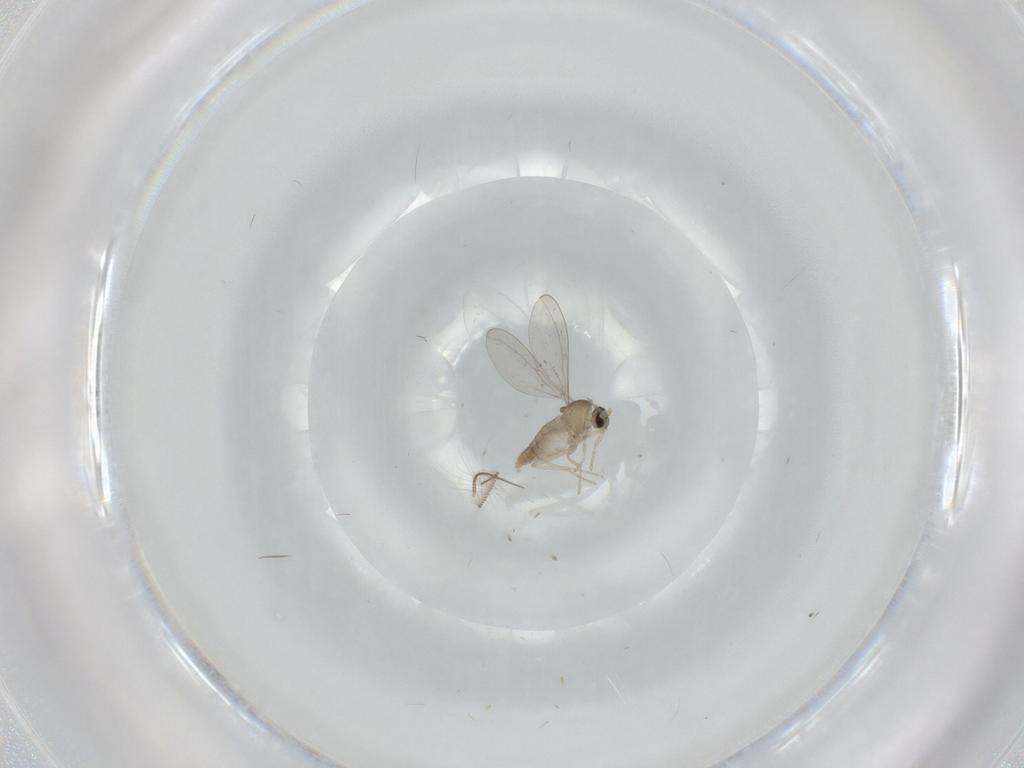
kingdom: Animalia
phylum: Arthropoda
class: Insecta
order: Diptera
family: Cecidomyiidae
